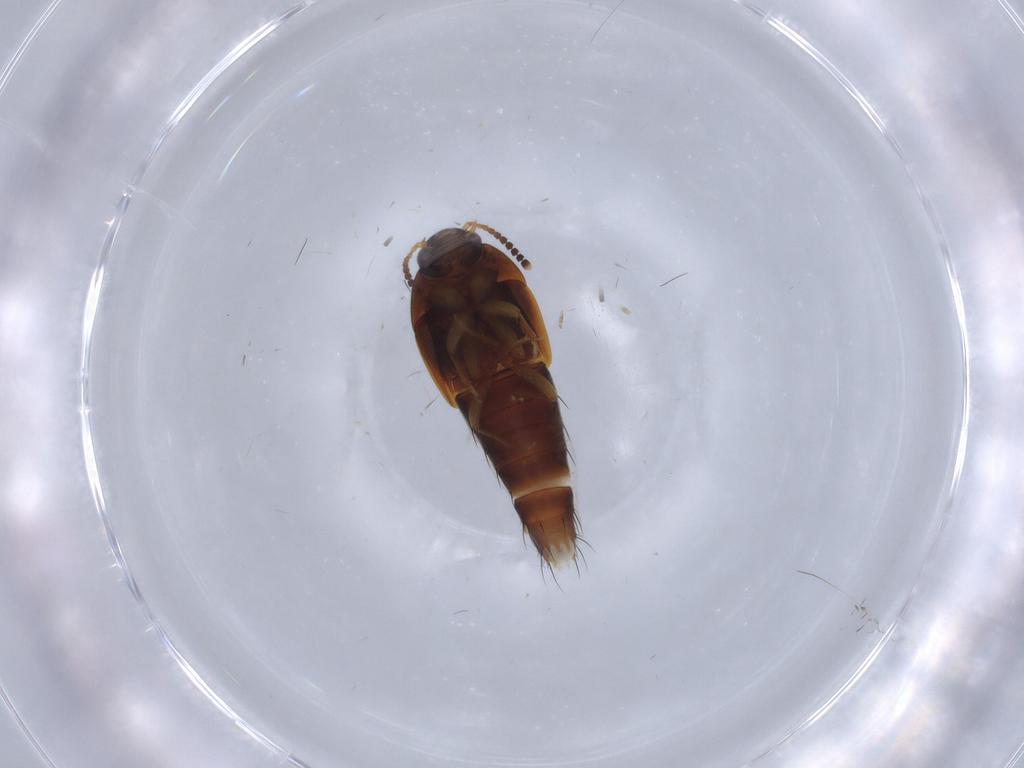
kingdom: Animalia
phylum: Arthropoda
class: Insecta
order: Coleoptera
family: Staphylinidae
